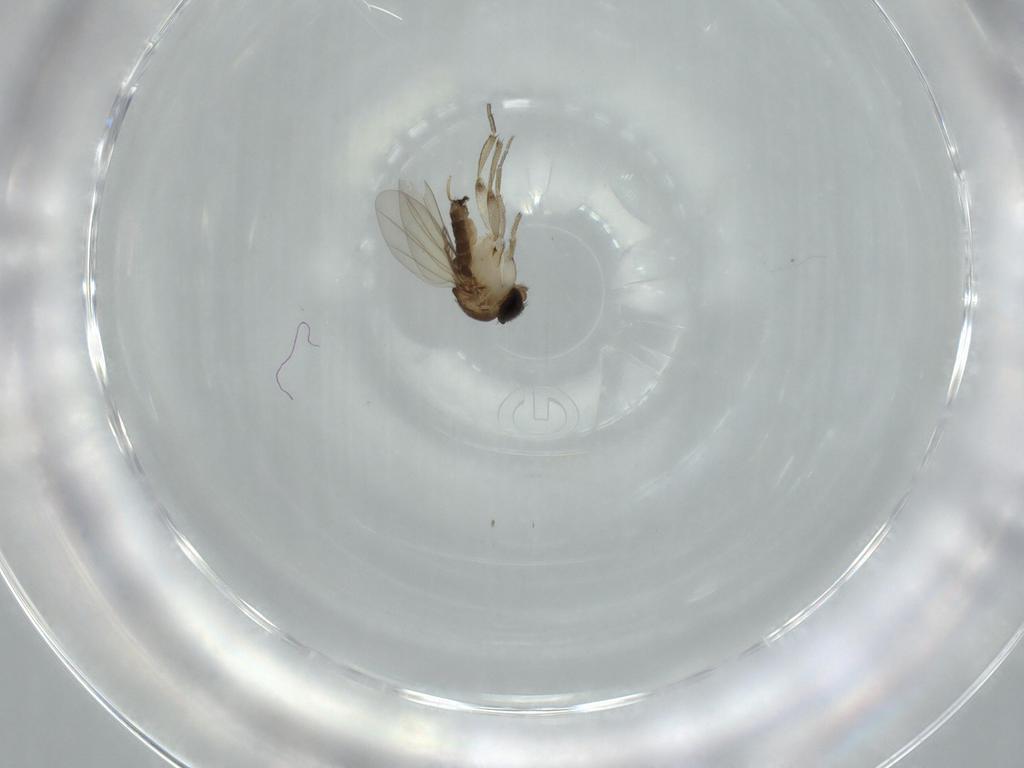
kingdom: Animalia
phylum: Arthropoda
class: Insecta
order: Diptera
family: Phoridae
